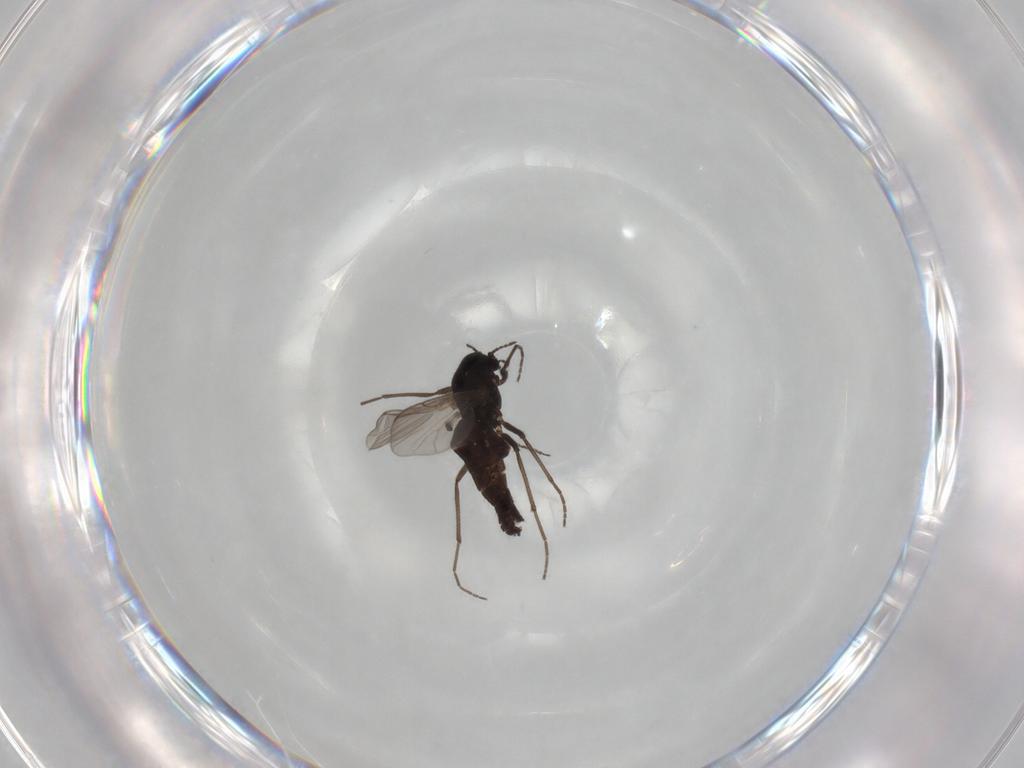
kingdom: Animalia
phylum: Arthropoda
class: Insecta
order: Diptera
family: Chironomidae
